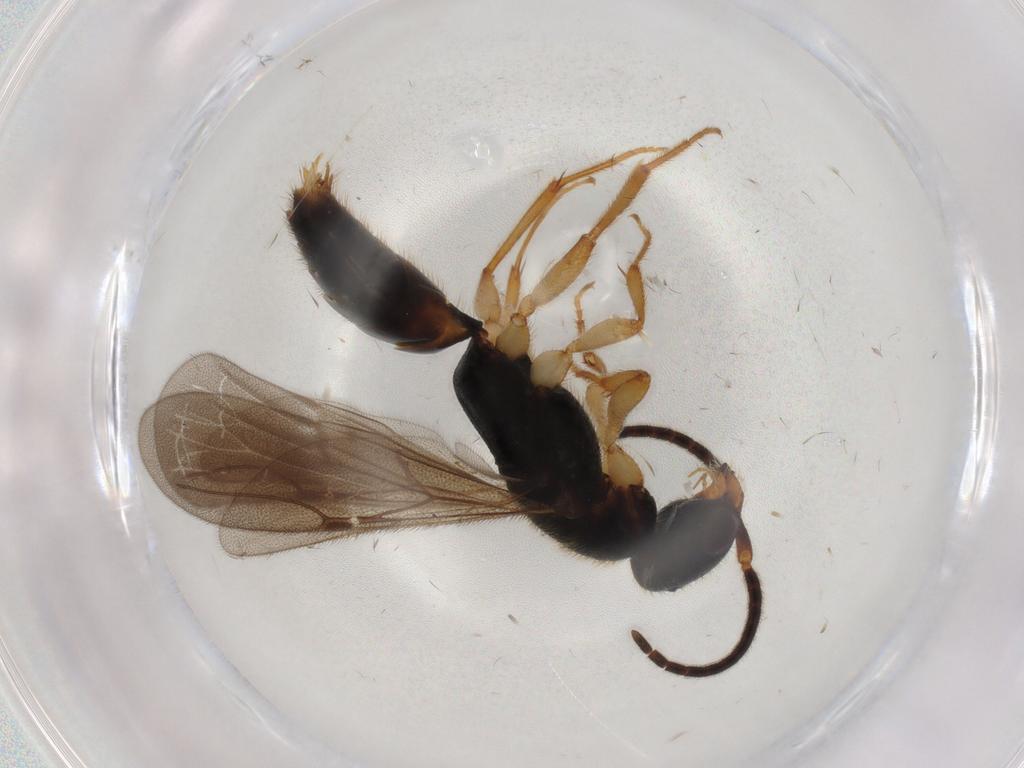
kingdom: Animalia
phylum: Arthropoda
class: Insecta
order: Hymenoptera
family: Bethylidae
